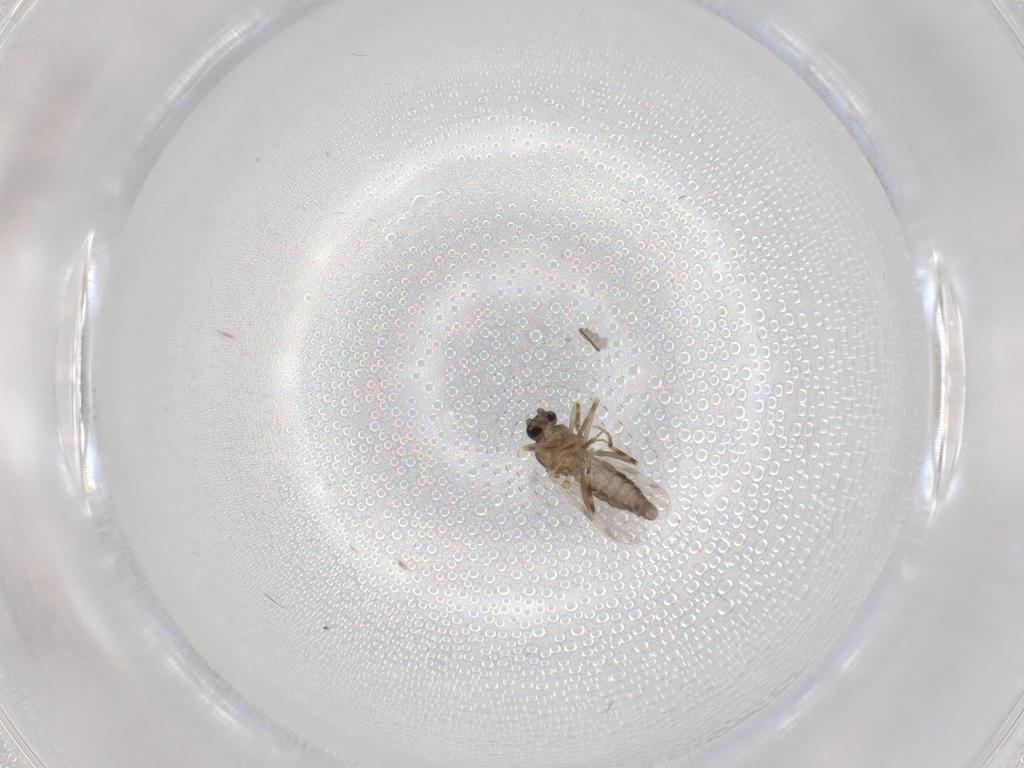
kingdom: Animalia
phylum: Arthropoda
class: Insecta
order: Diptera
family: Ceratopogonidae
